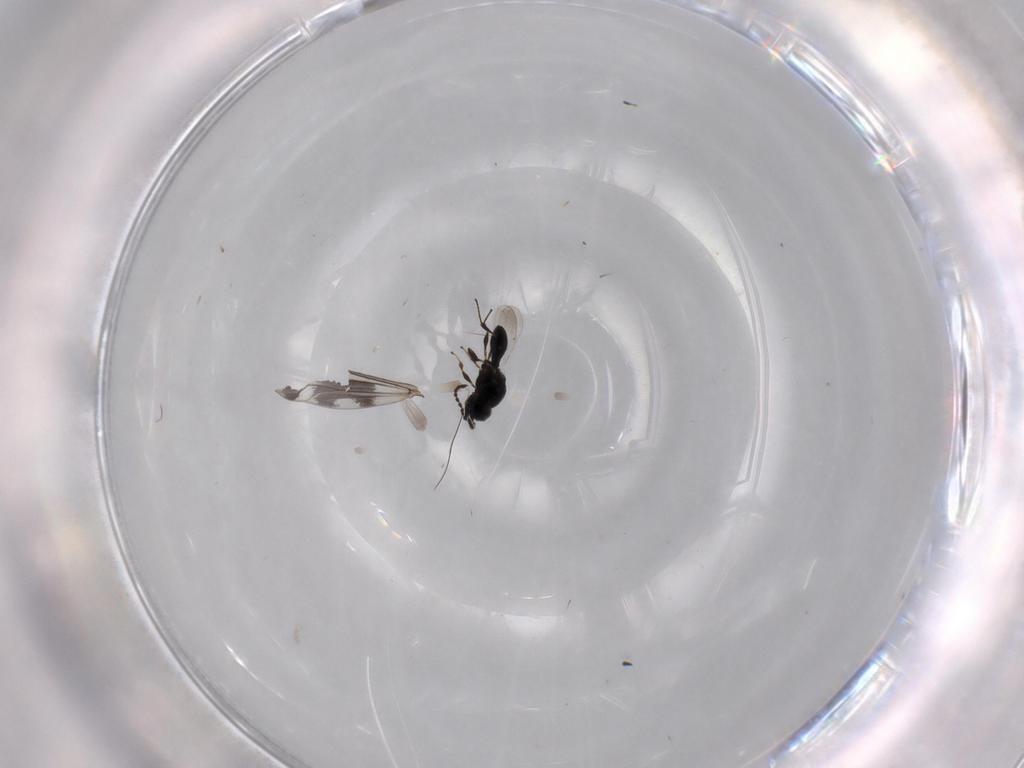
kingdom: Animalia
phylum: Arthropoda
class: Insecta
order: Hymenoptera
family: Platygastridae
